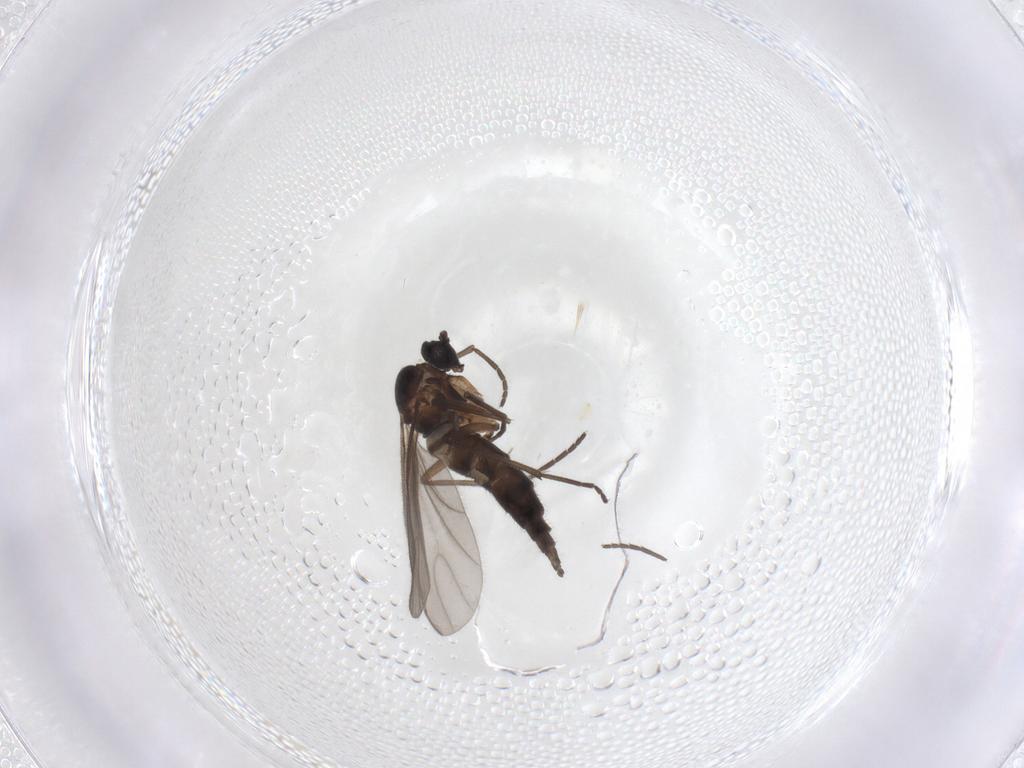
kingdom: Animalia
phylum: Arthropoda
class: Insecta
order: Diptera
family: Sciaridae
